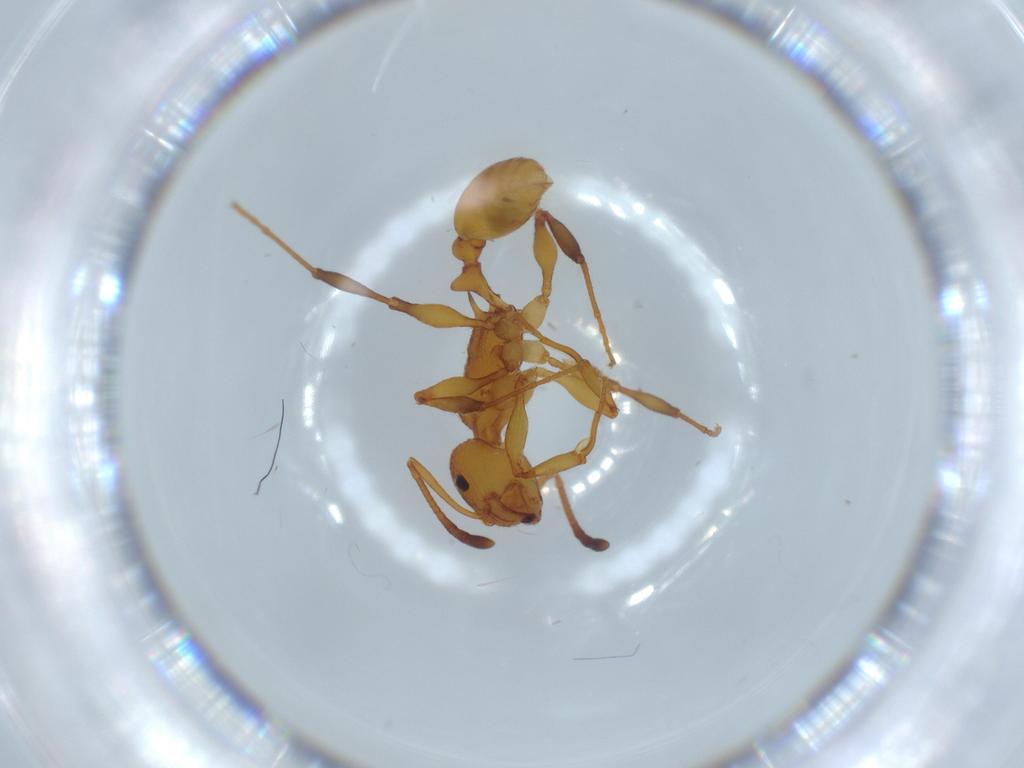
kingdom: Animalia
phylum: Arthropoda
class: Insecta
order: Hymenoptera
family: Formicidae
